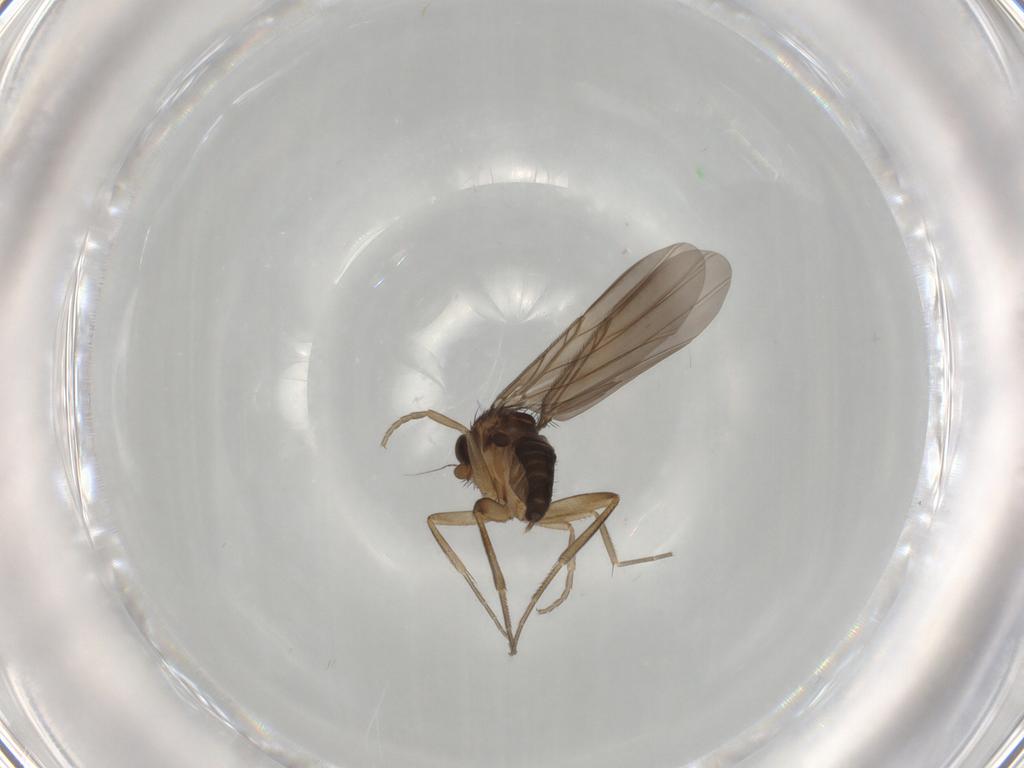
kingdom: Animalia
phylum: Arthropoda
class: Insecta
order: Diptera
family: Phoridae
